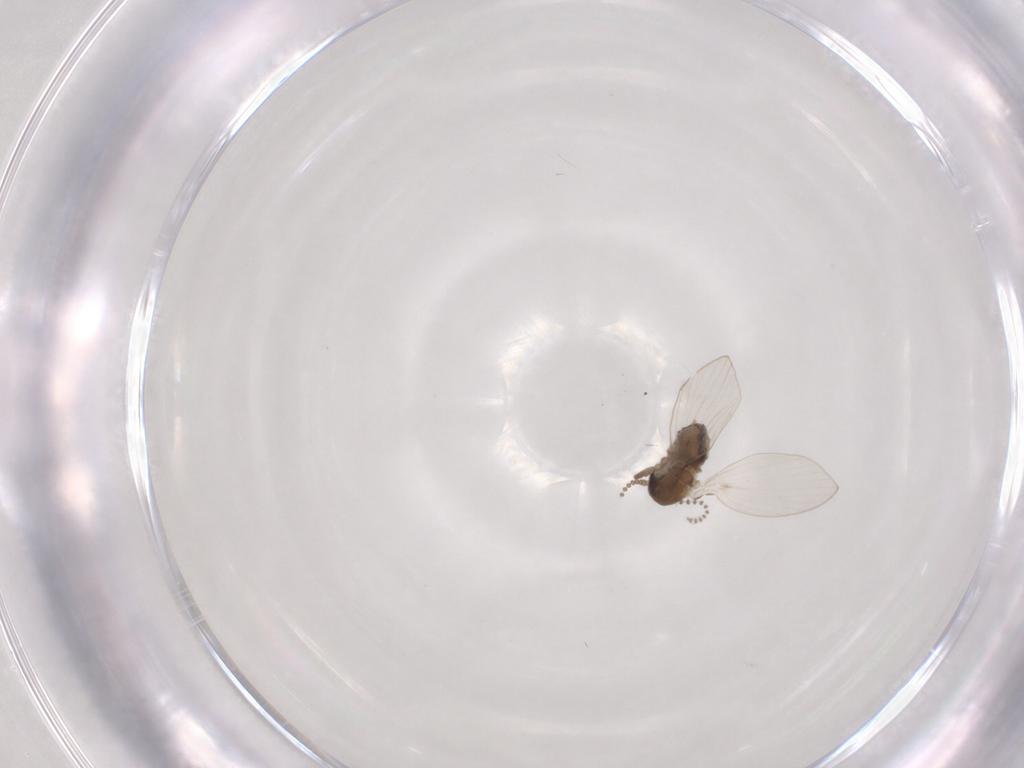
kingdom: Animalia
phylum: Arthropoda
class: Insecta
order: Diptera
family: Psychodidae
